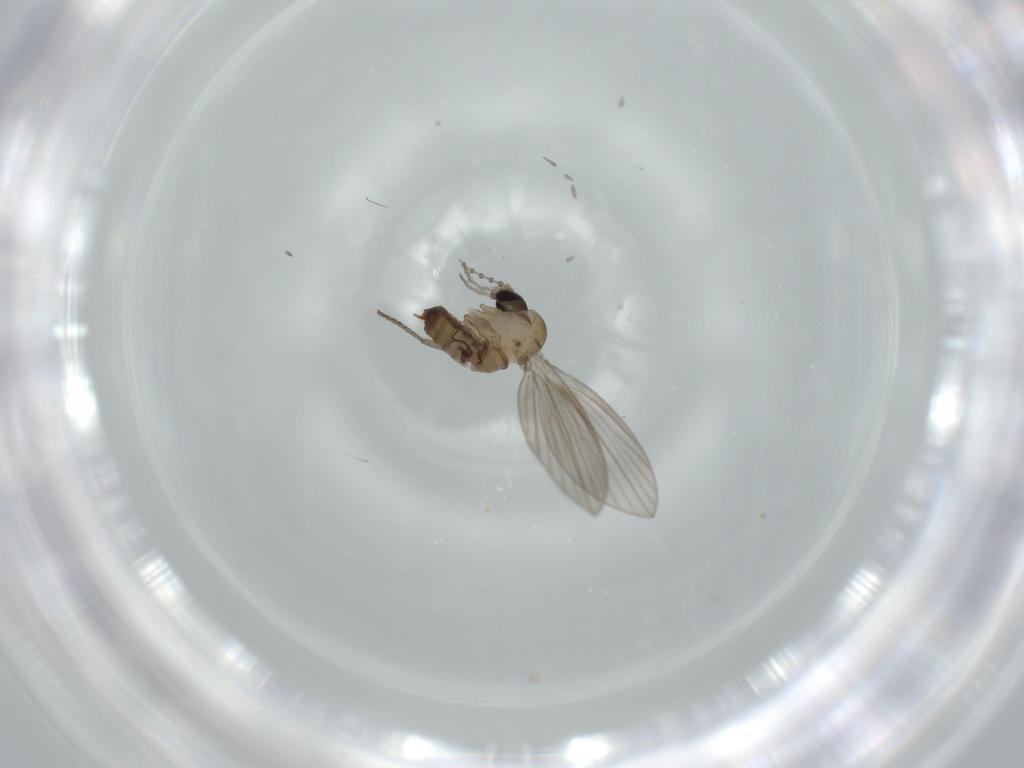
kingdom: Animalia
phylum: Arthropoda
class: Insecta
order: Diptera
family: Psychodidae
